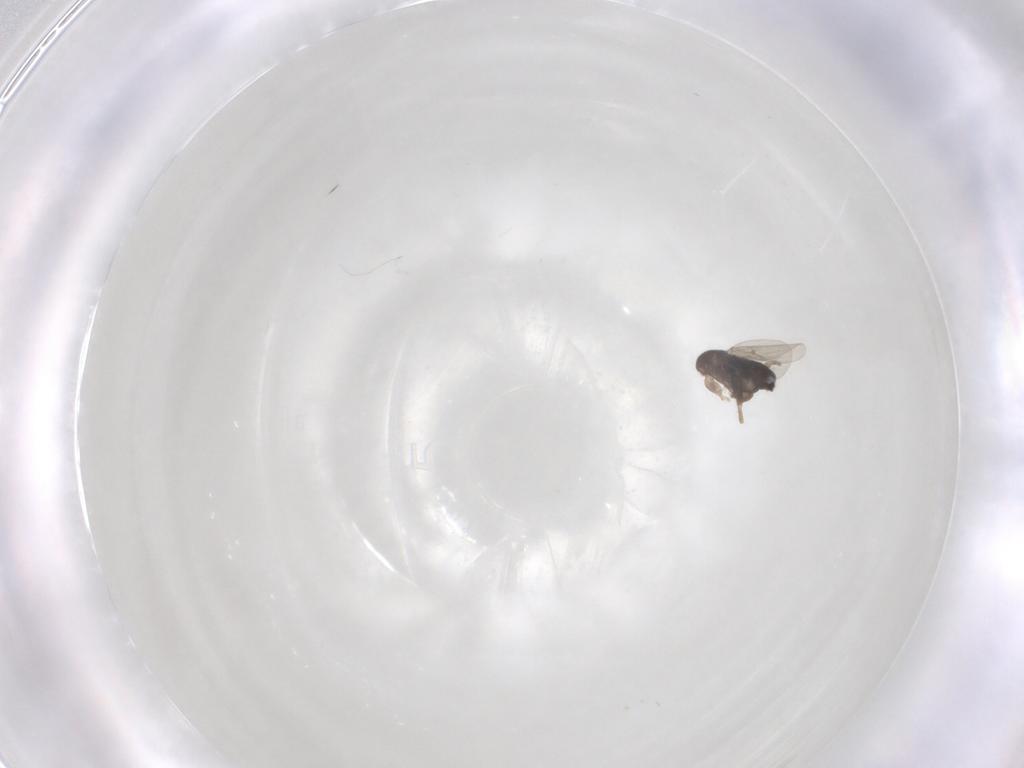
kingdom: Animalia
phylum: Arthropoda
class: Insecta
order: Diptera
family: Phoridae
